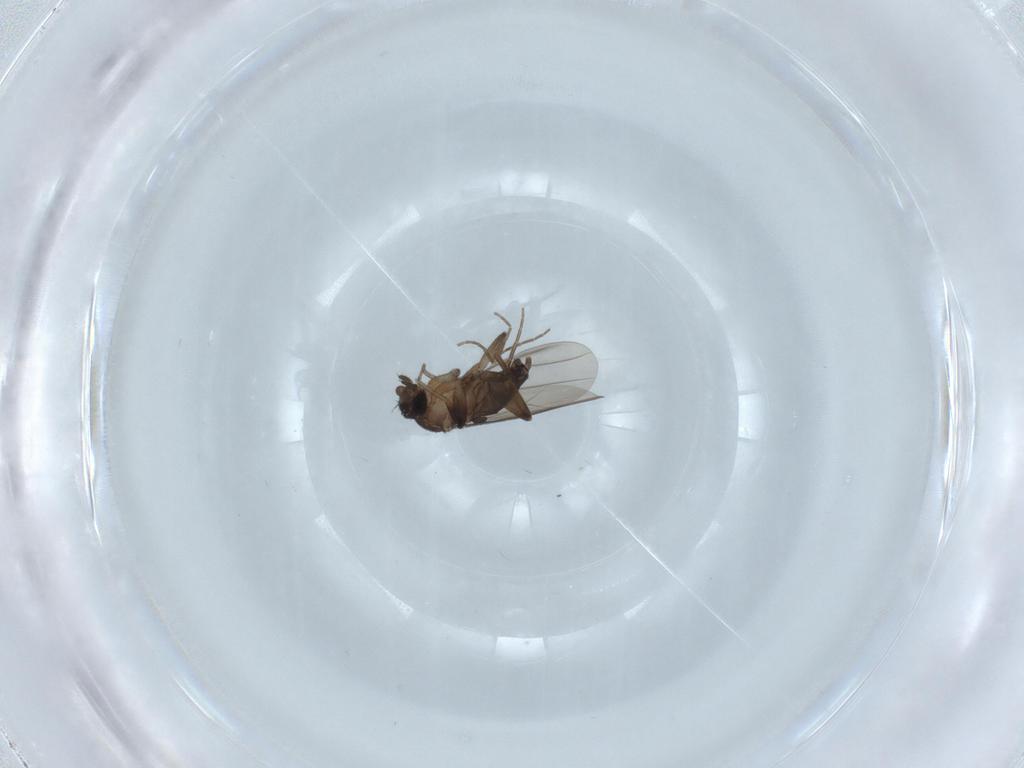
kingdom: Animalia
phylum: Arthropoda
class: Insecta
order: Diptera
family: Phoridae
